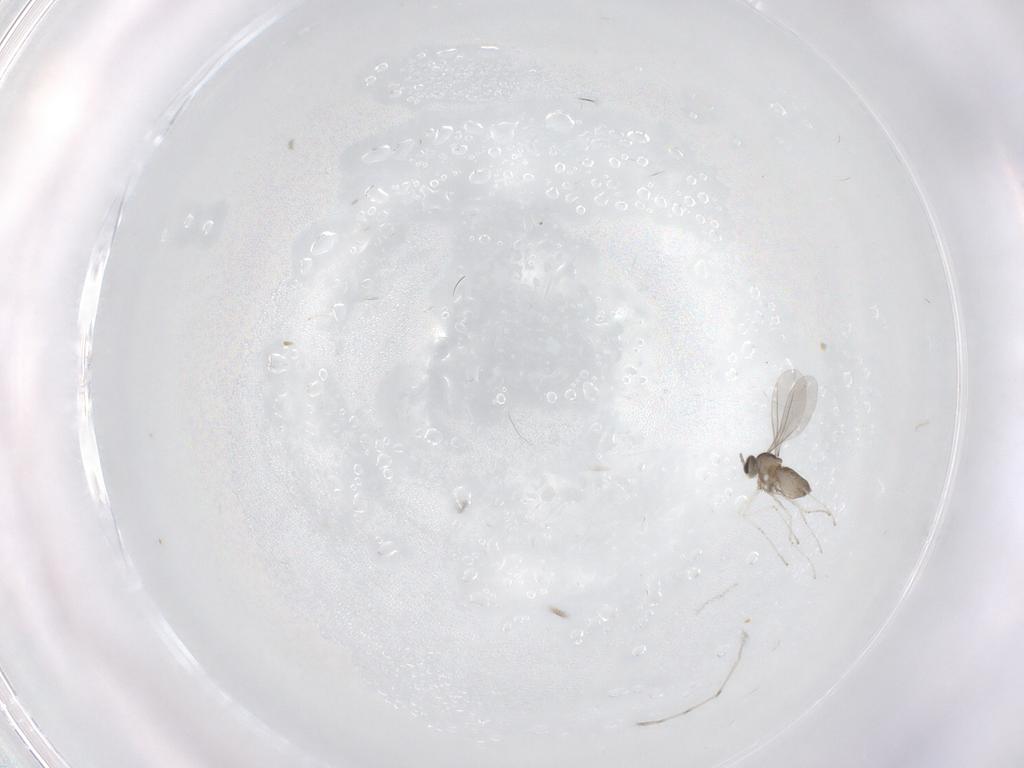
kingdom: Animalia
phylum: Arthropoda
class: Insecta
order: Diptera
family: Cecidomyiidae
